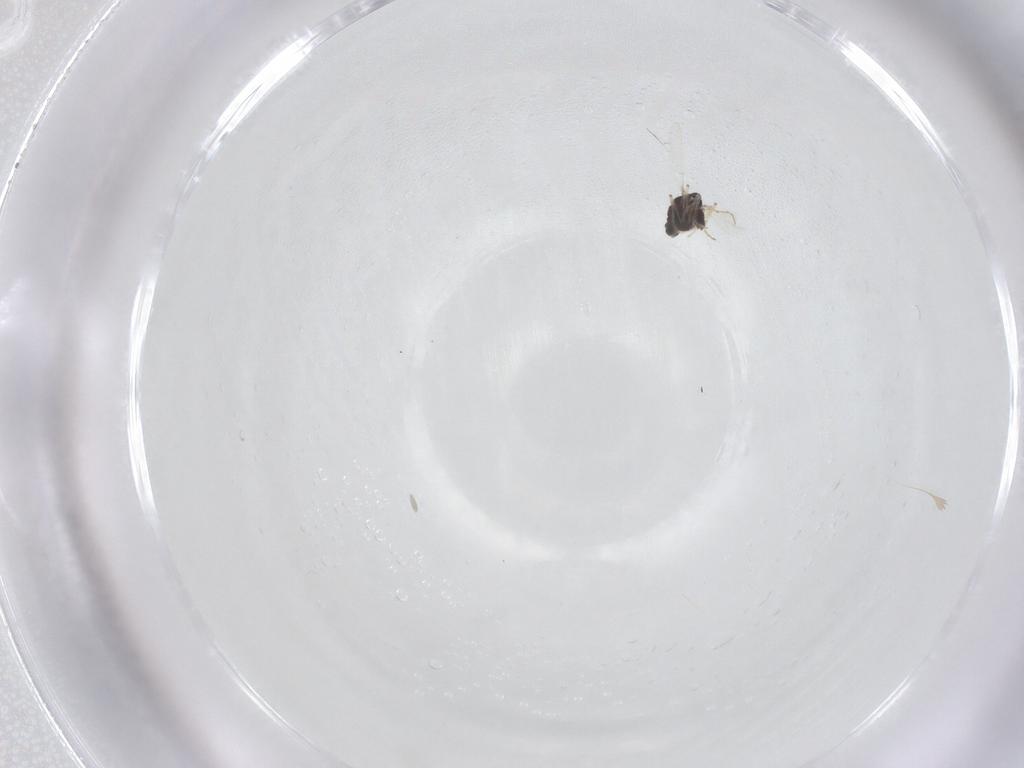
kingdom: Animalia
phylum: Arthropoda
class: Insecta
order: Diptera
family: Chironomidae
